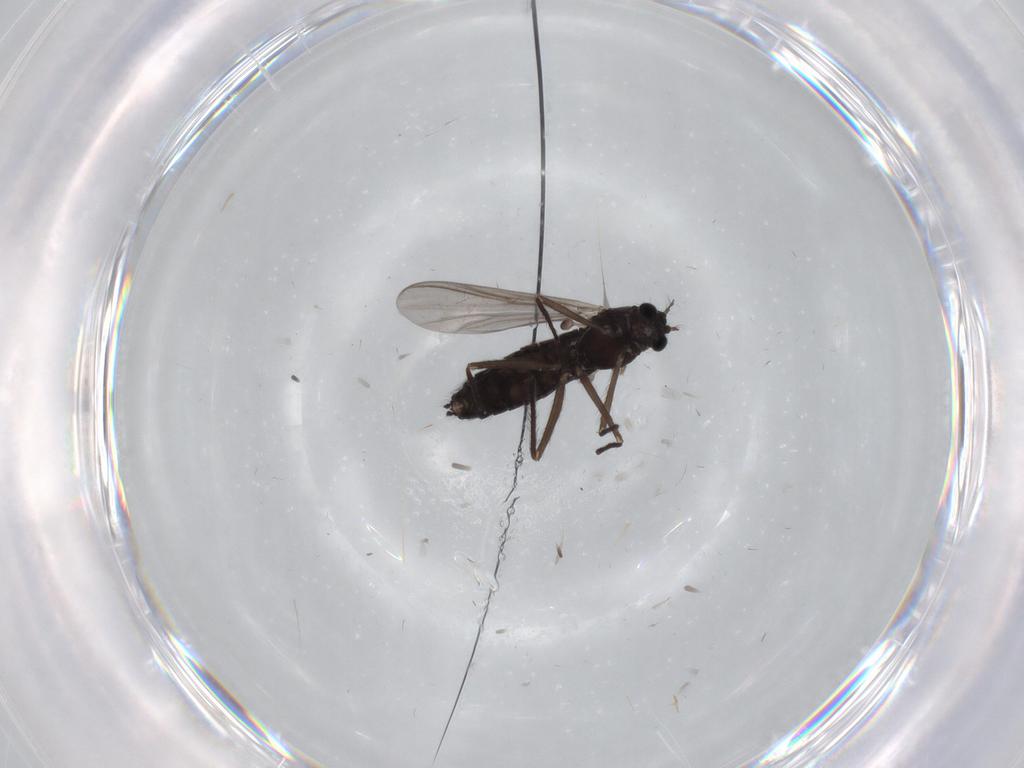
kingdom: Animalia
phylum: Arthropoda
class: Insecta
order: Diptera
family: Chironomidae
